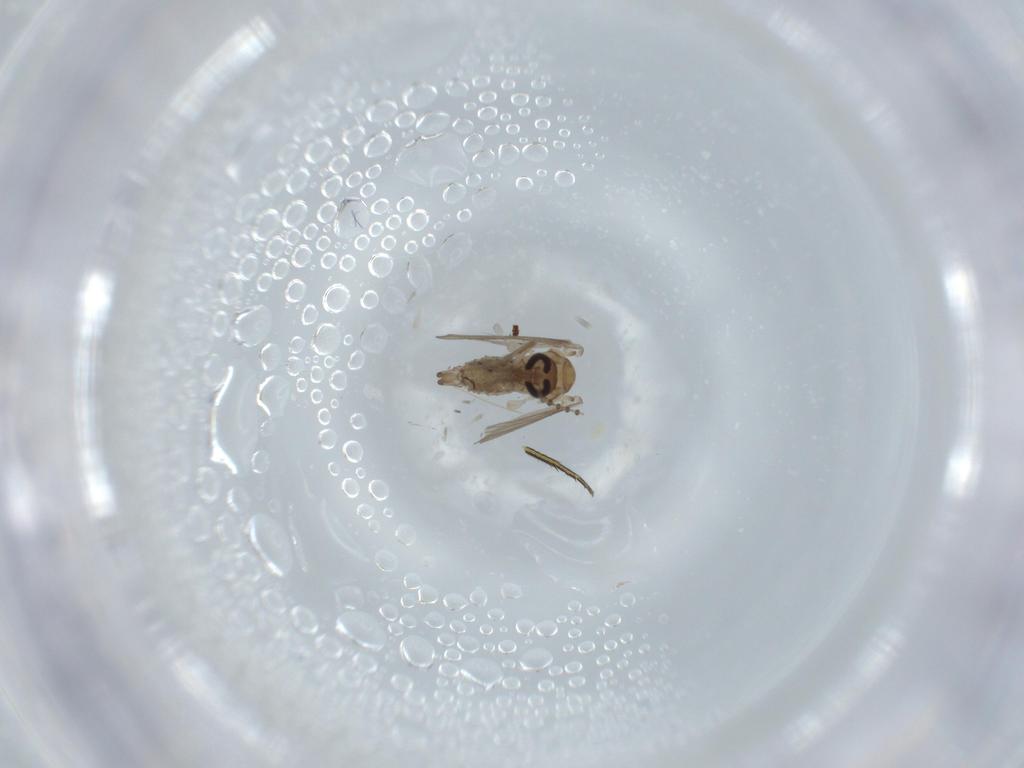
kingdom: Animalia
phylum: Arthropoda
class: Insecta
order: Diptera
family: Psychodidae
